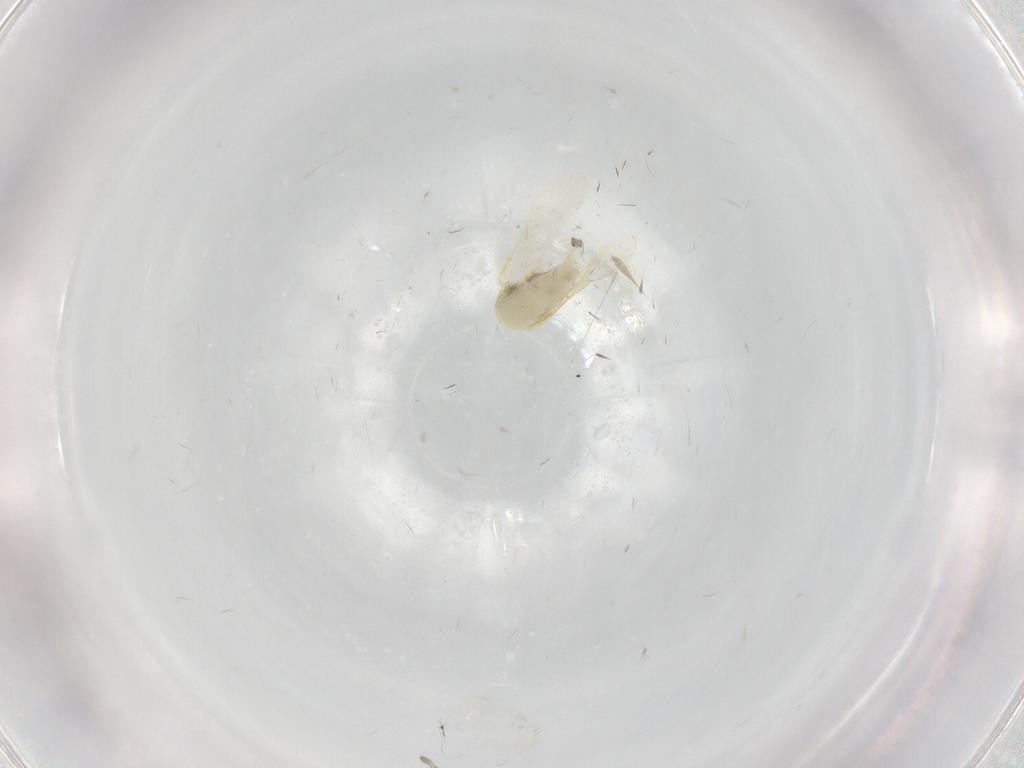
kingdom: Animalia
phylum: Arthropoda
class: Insecta
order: Hemiptera
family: Aleyrodidae
